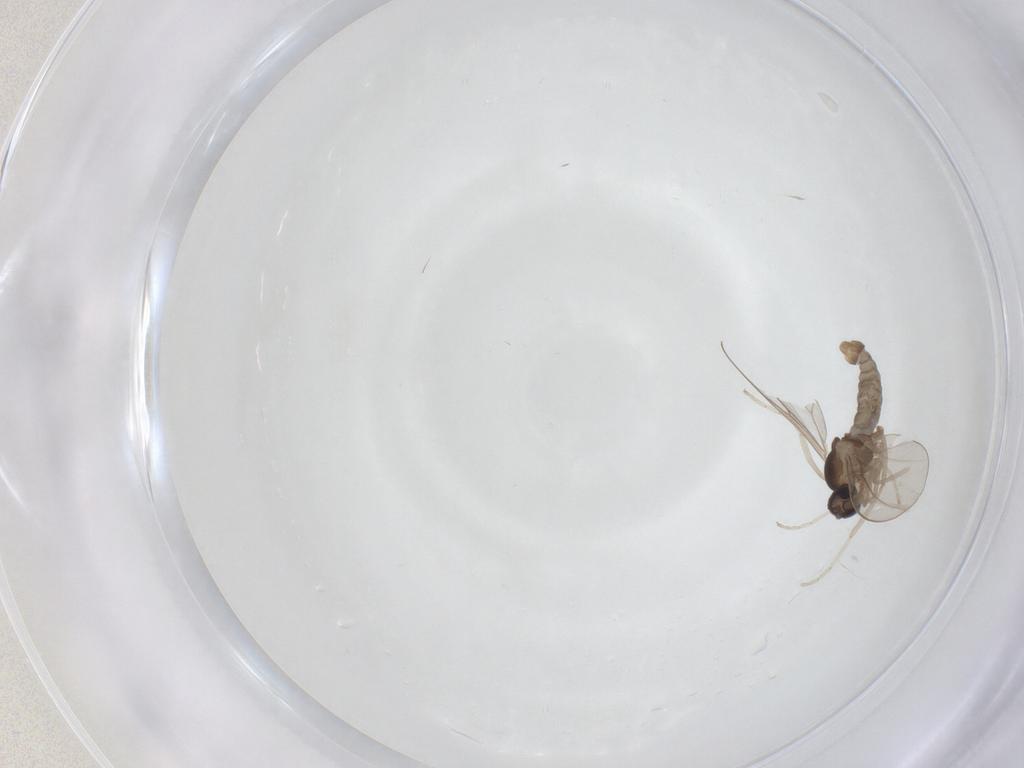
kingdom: Animalia
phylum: Arthropoda
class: Insecta
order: Diptera
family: Cecidomyiidae
